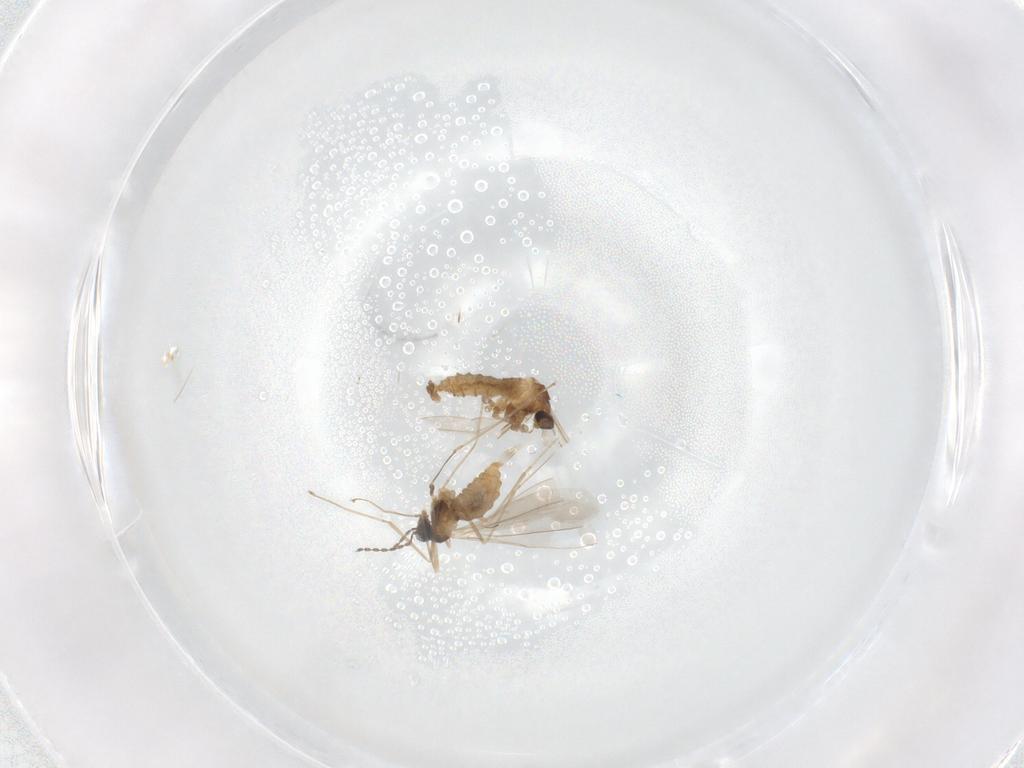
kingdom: Animalia
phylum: Arthropoda
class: Insecta
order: Diptera
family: Cecidomyiidae
